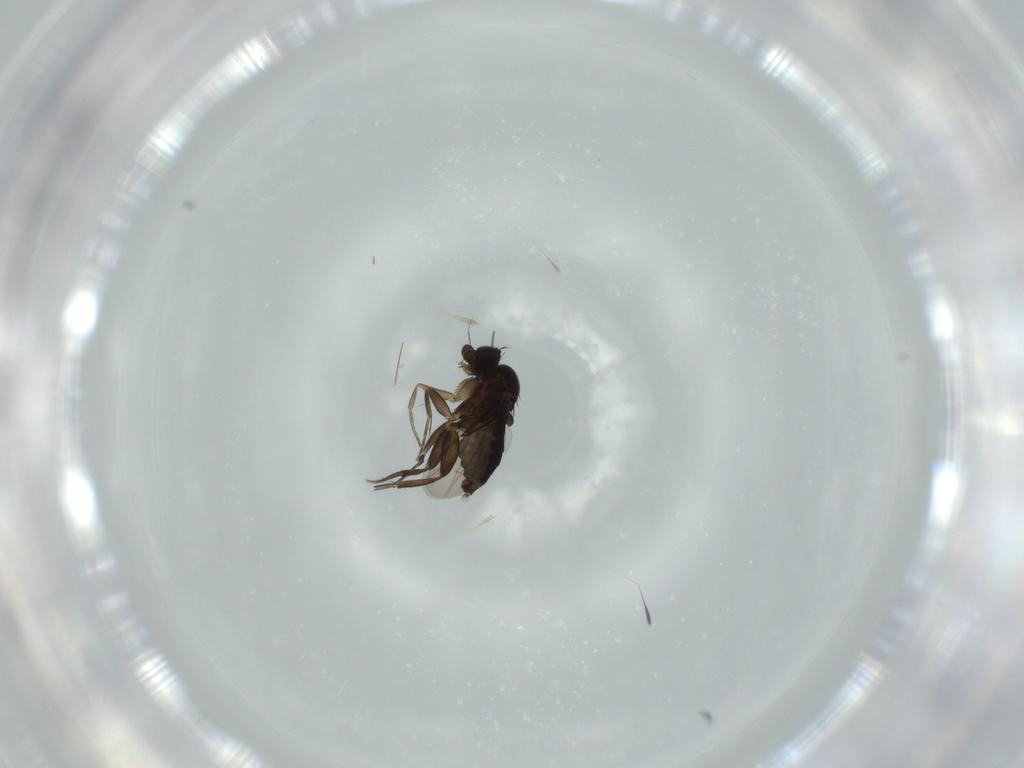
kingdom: Animalia
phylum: Arthropoda
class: Insecta
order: Diptera
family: Phoridae
